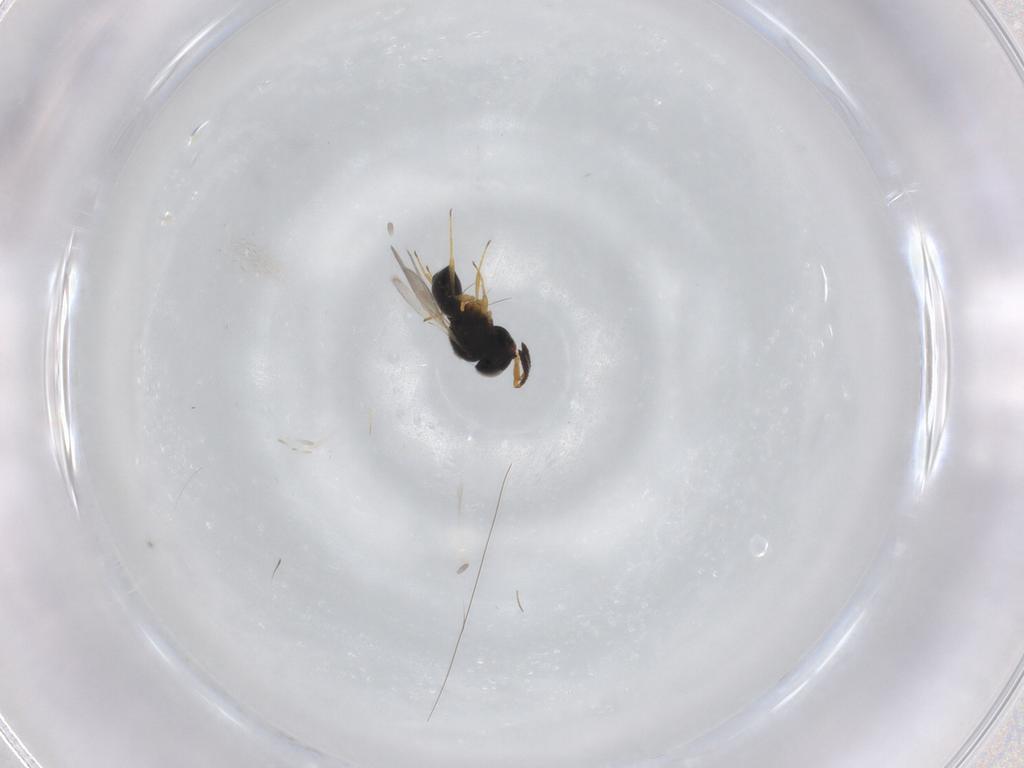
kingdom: Animalia
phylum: Arthropoda
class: Insecta
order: Hymenoptera
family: Scelionidae
